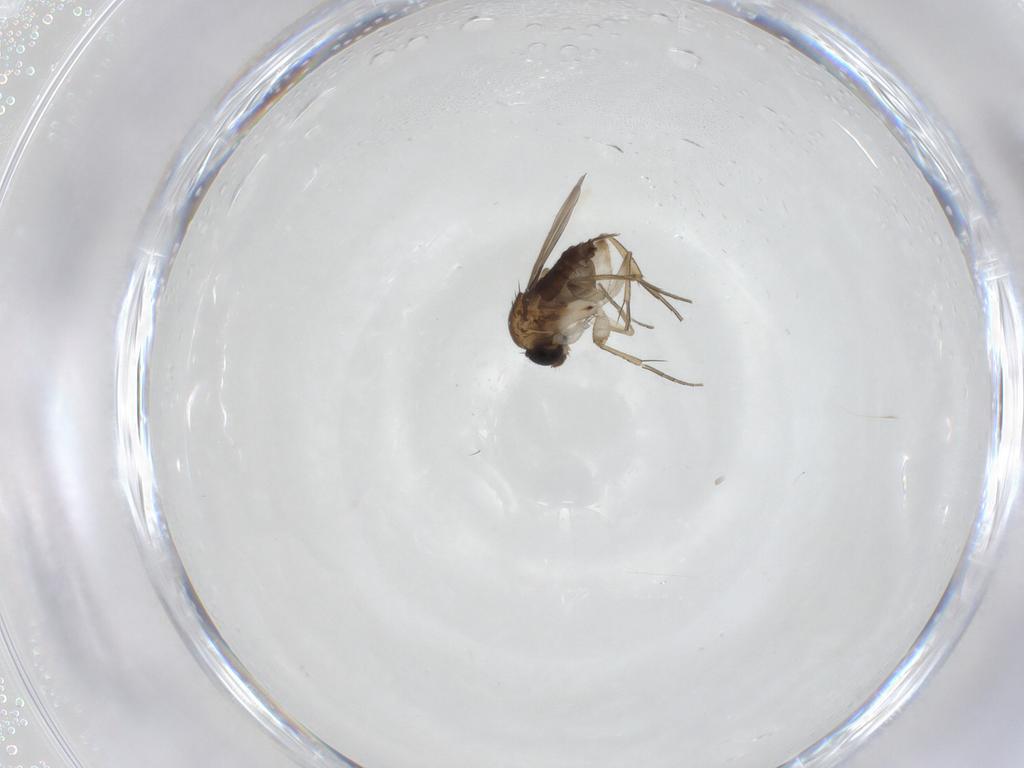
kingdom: Animalia
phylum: Arthropoda
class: Insecta
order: Diptera
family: Phoridae
